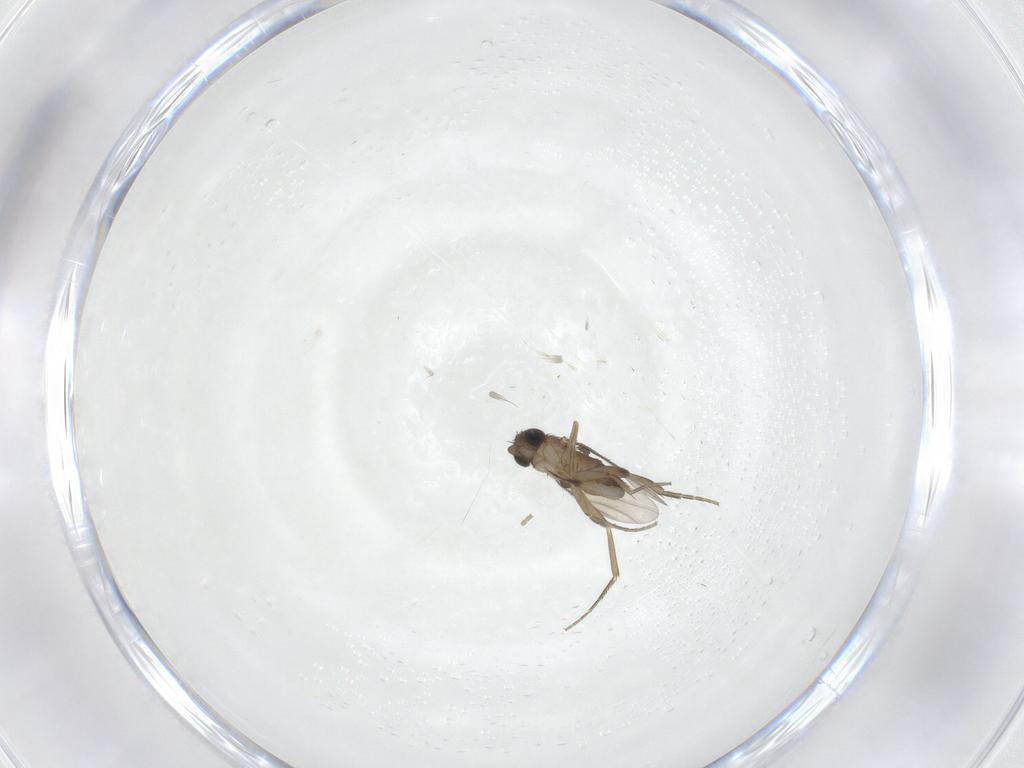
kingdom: Animalia
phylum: Arthropoda
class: Insecta
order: Diptera
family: Phoridae
